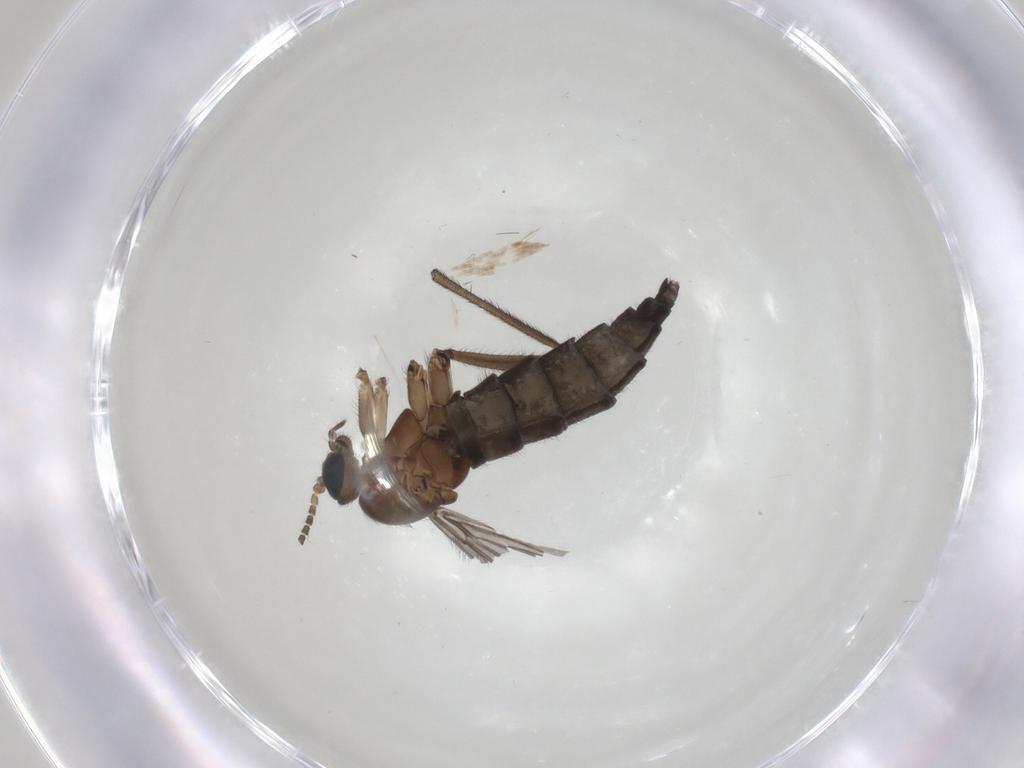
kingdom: Animalia
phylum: Arthropoda
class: Insecta
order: Diptera
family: Sciaridae
